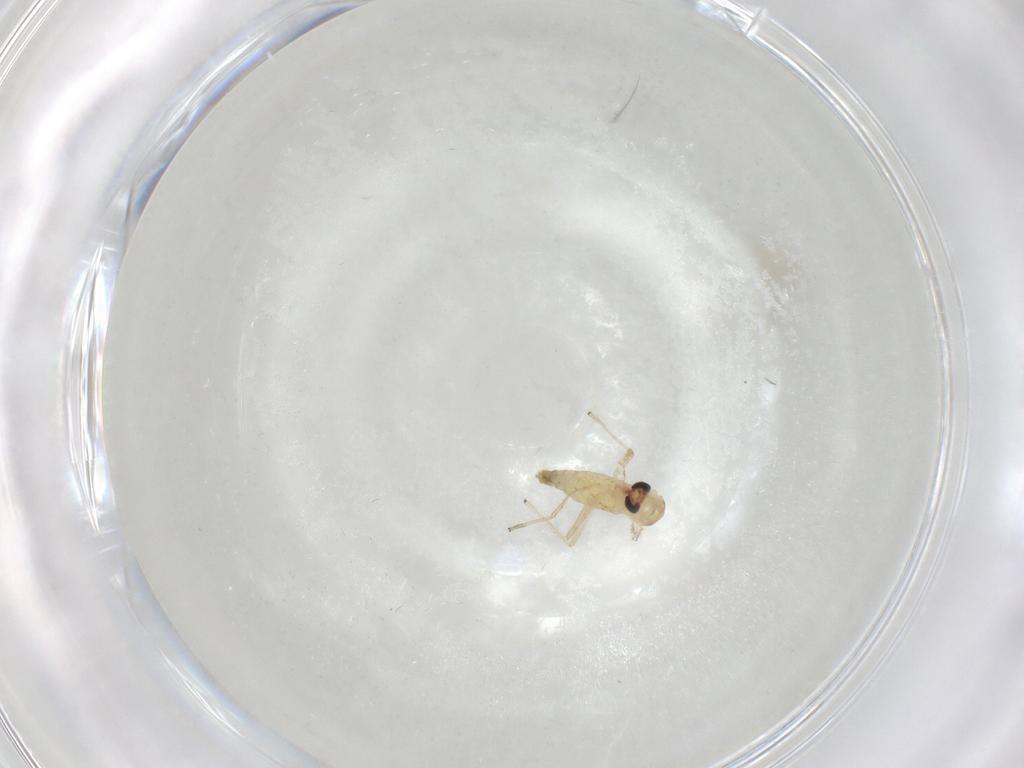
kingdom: Animalia
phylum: Arthropoda
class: Insecta
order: Diptera
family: Chironomidae
